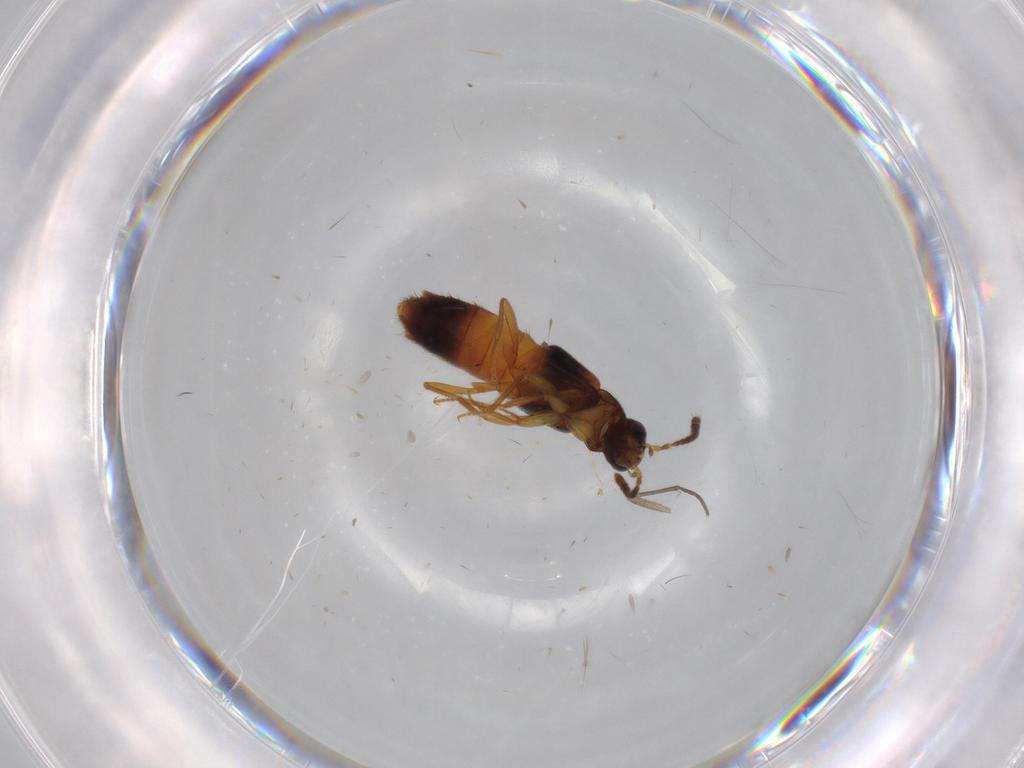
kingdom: Animalia
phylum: Arthropoda
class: Insecta
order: Coleoptera
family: Staphylinidae
